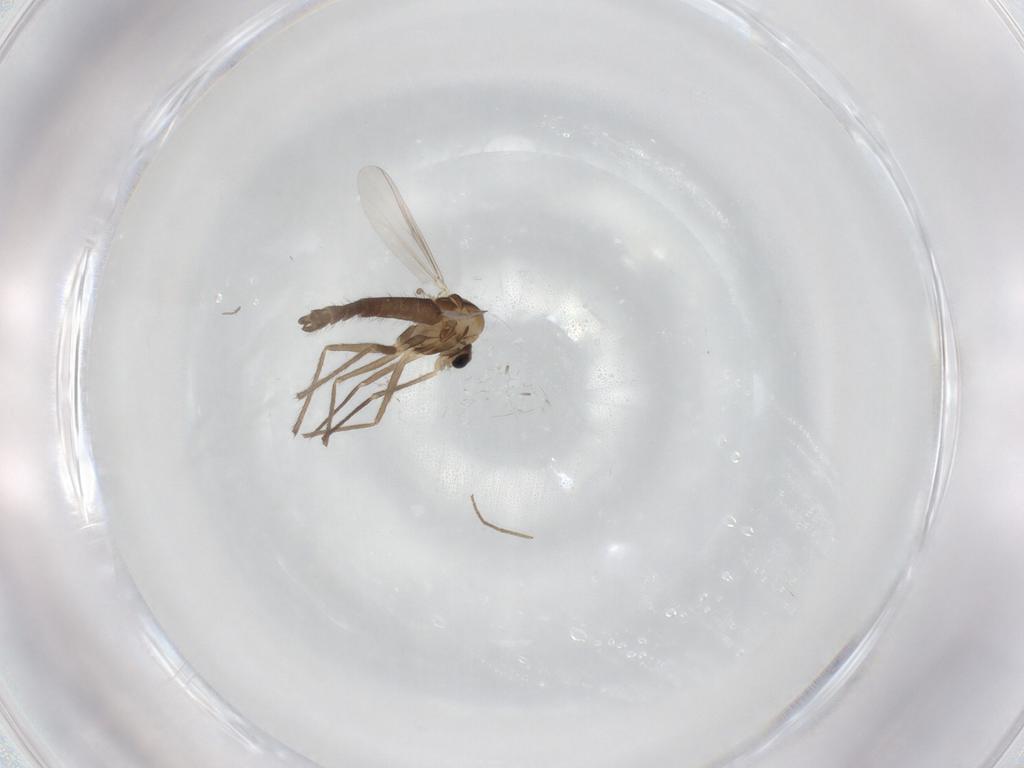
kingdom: Animalia
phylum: Arthropoda
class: Insecta
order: Diptera
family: Chironomidae
